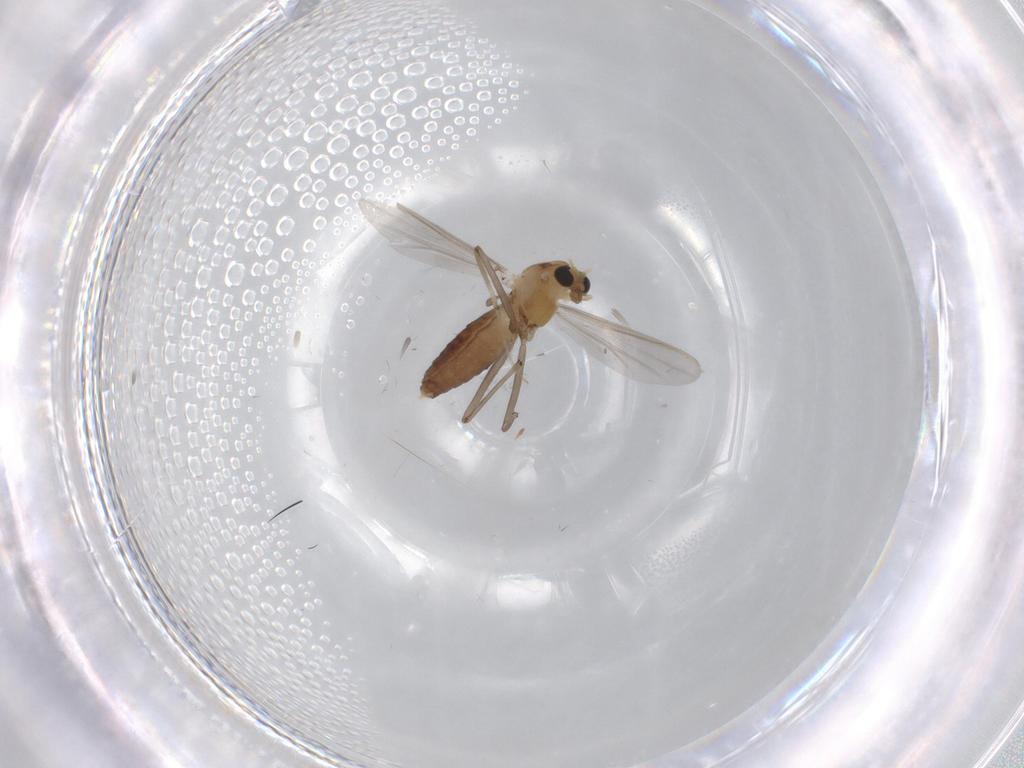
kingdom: Animalia
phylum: Arthropoda
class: Insecta
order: Diptera
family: Chironomidae
